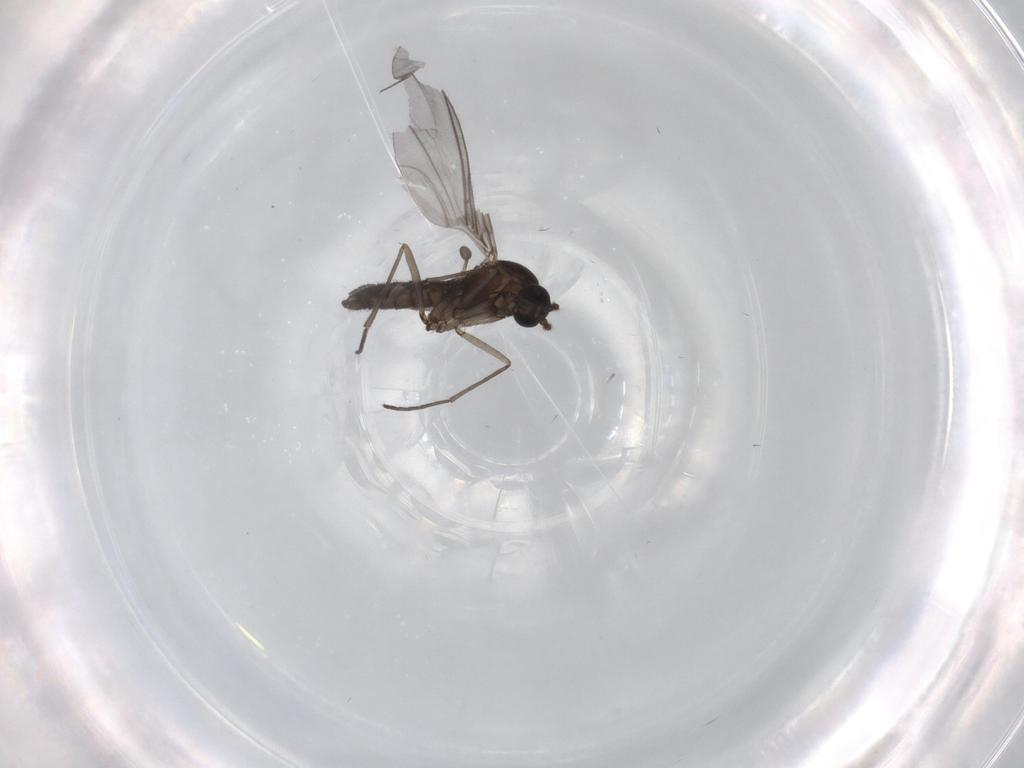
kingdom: Animalia
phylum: Arthropoda
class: Insecta
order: Diptera
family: Sciaridae
